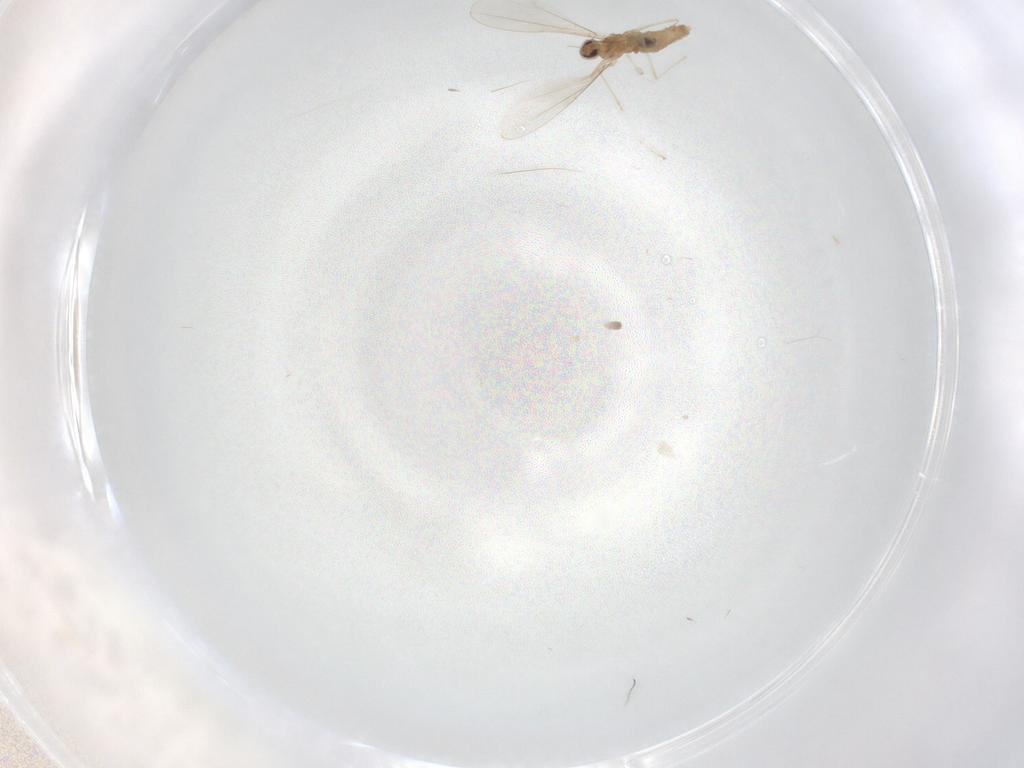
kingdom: Animalia
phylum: Arthropoda
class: Insecta
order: Diptera
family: Cecidomyiidae
